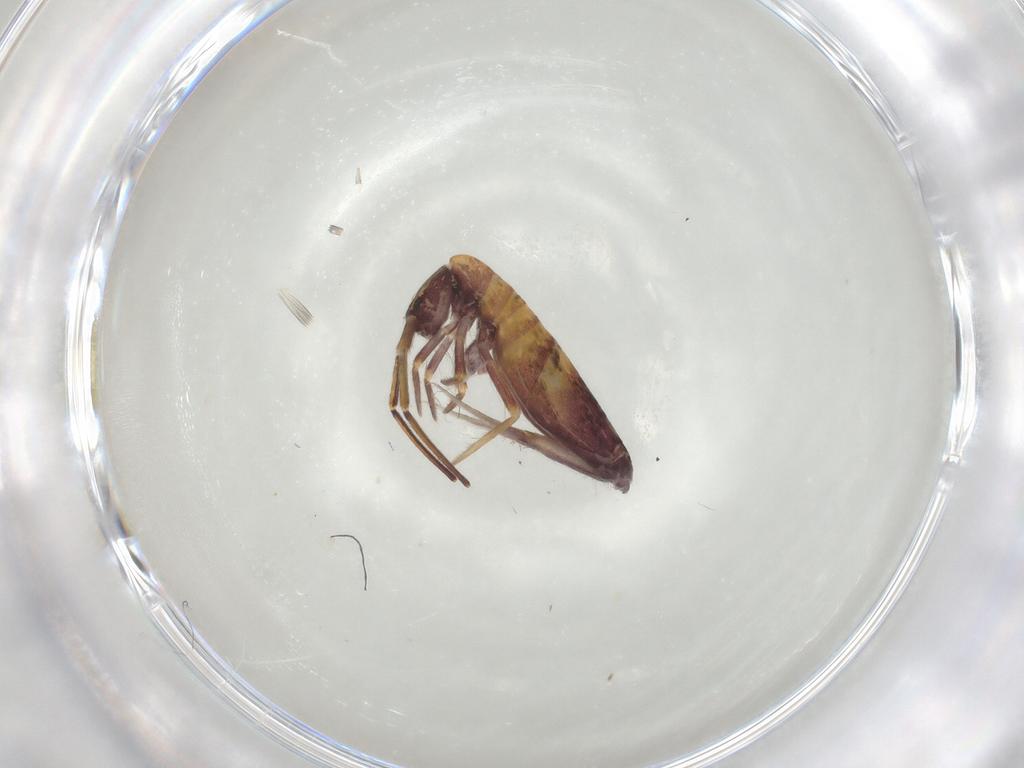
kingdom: Animalia
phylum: Arthropoda
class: Collembola
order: Entomobryomorpha
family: Entomobryidae
